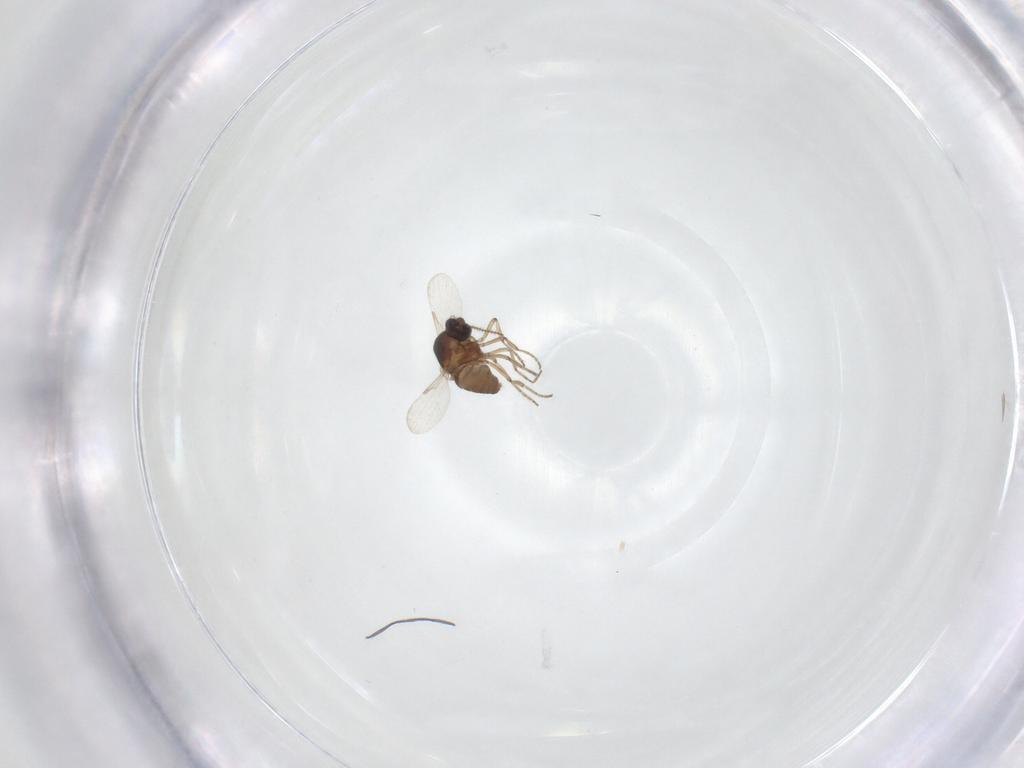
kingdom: Animalia
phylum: Arthropoda
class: Insecta
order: Diptera
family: Ceratopogonidae
